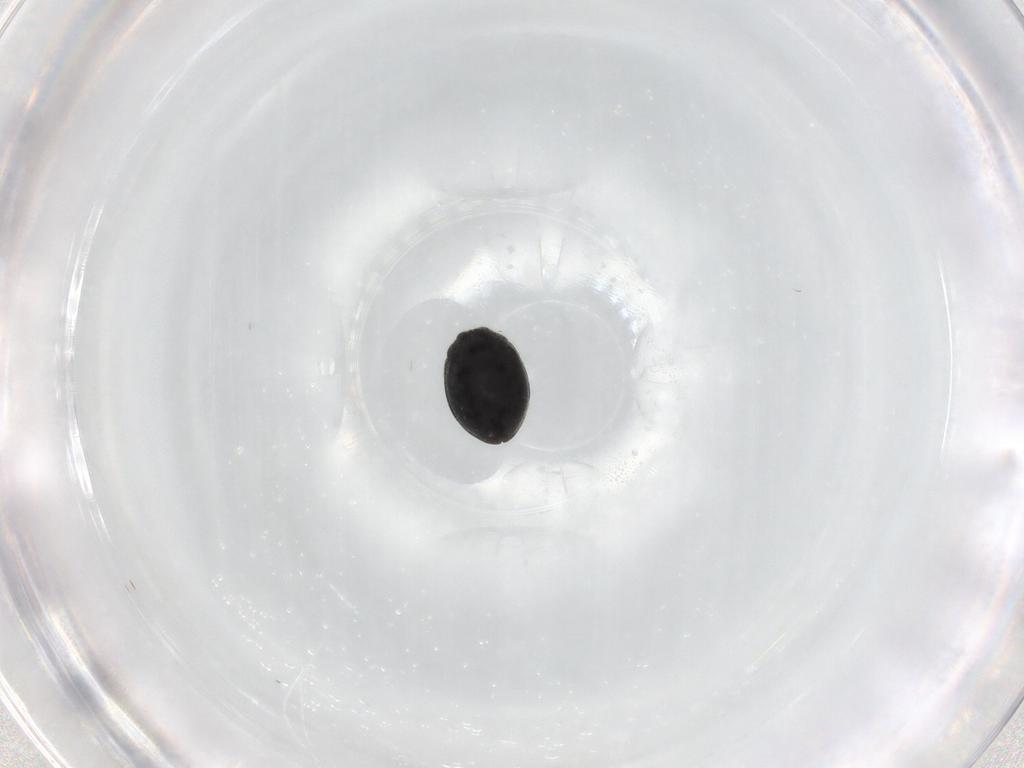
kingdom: Animalia
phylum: Arthropoda
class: Insecta
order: Coleoptera
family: Coccinellidae
